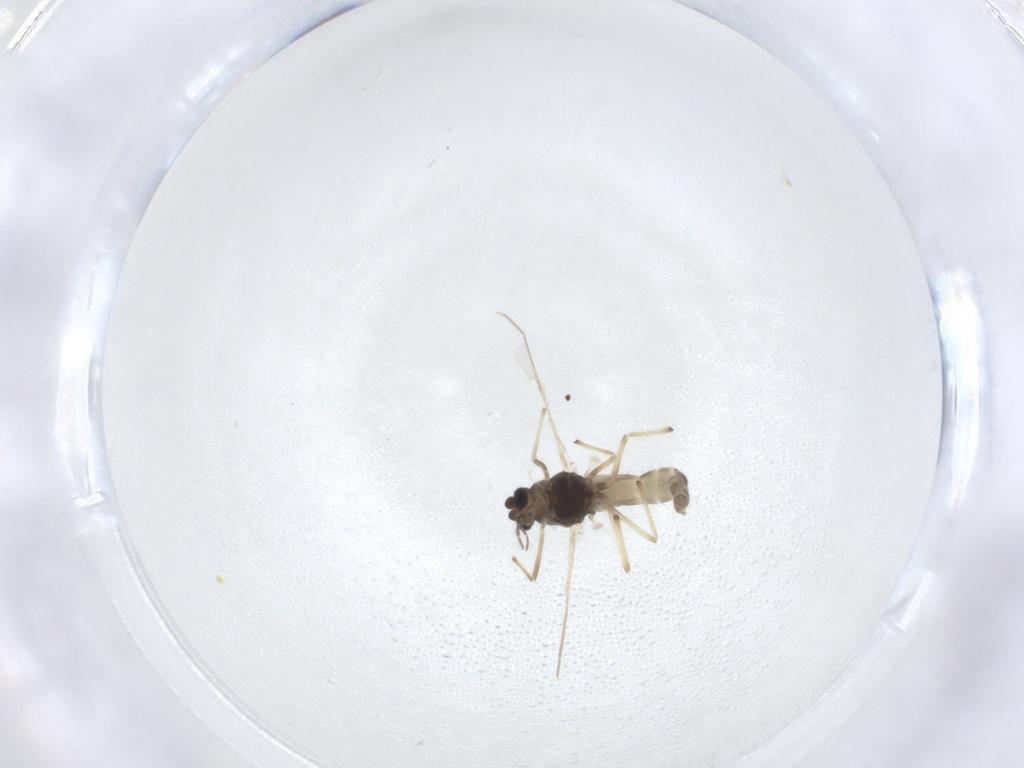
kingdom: Animalia
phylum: Arthropoda
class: Insecta
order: Diptera
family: Chironomidae
